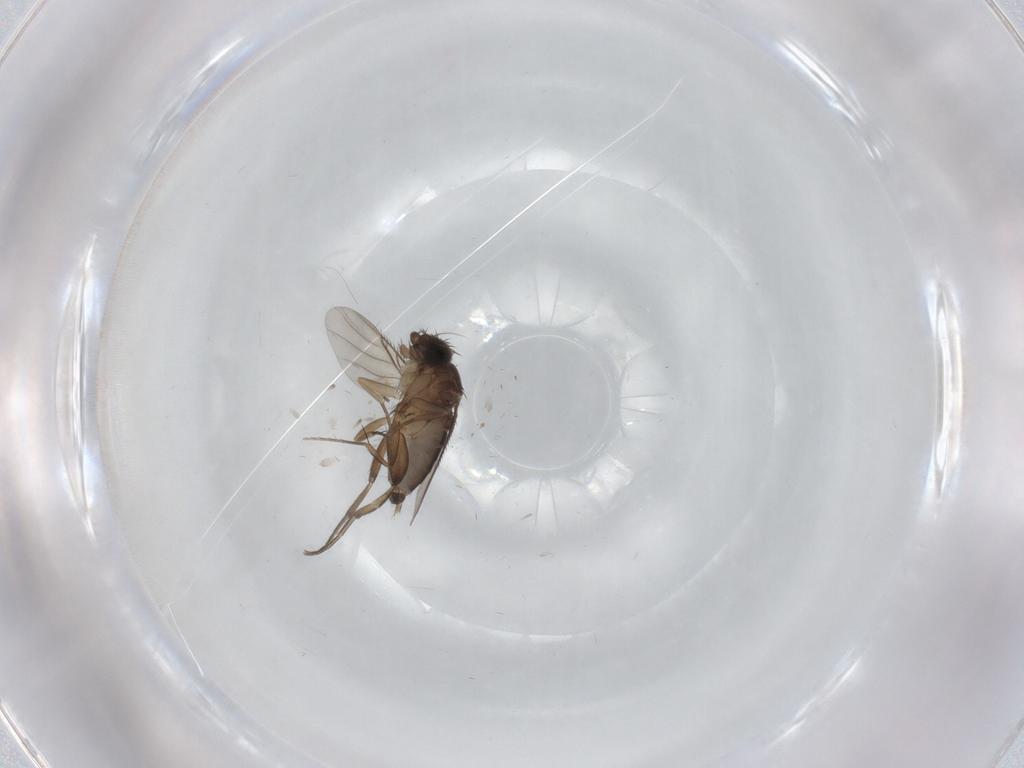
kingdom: Animalia
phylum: Arthropoda
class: Insecta
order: Diptera
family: Phoridae
